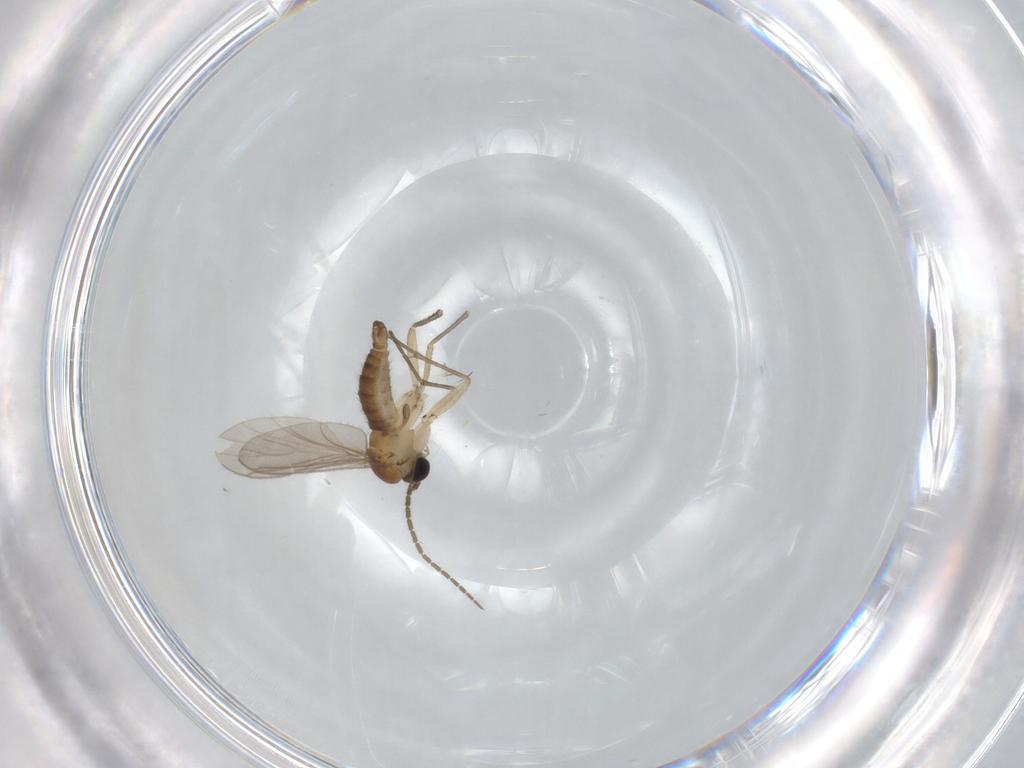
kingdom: Animalia
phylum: Arthropoda
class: Insecta
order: Diptera
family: Sciaridae
